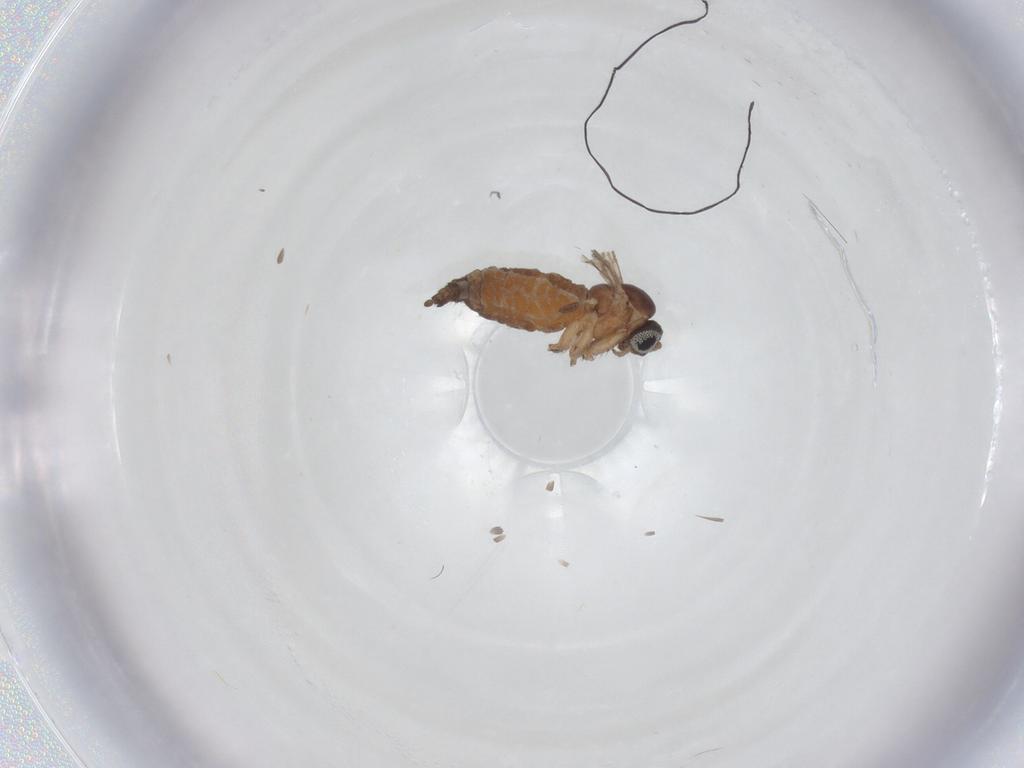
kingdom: Animalia
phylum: Arthropoda
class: Insecta
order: Diptera
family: Sciaridae
